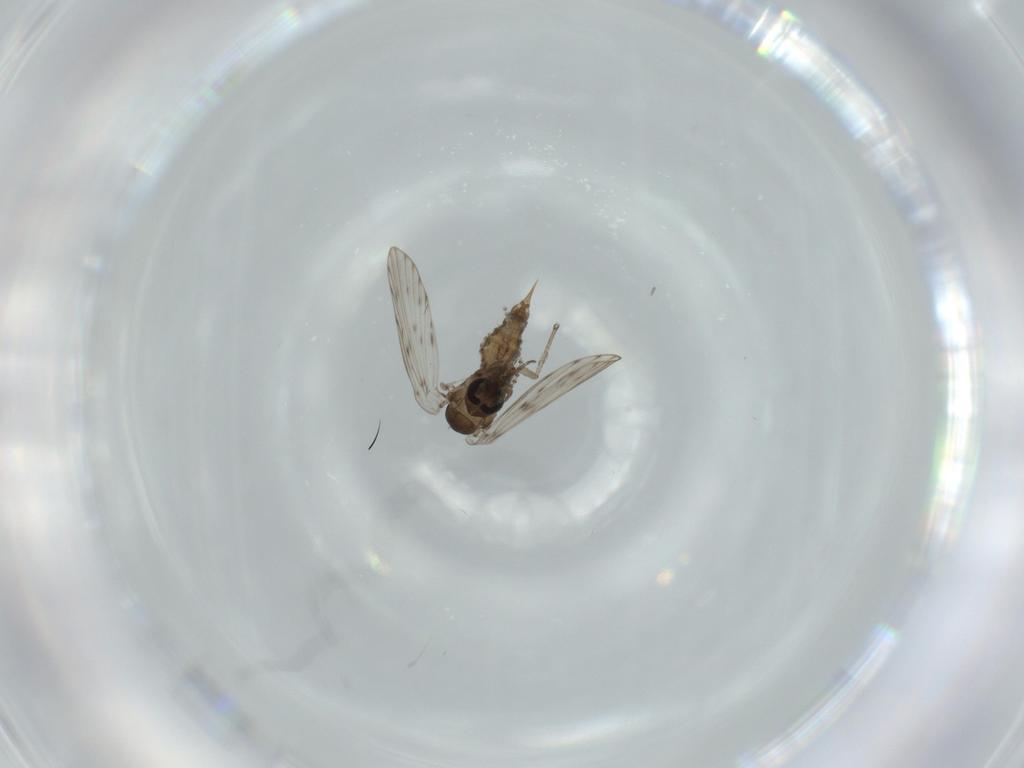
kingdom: Animalia
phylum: Arthropoda
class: Insecta
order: Diptera
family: Psychodidae
